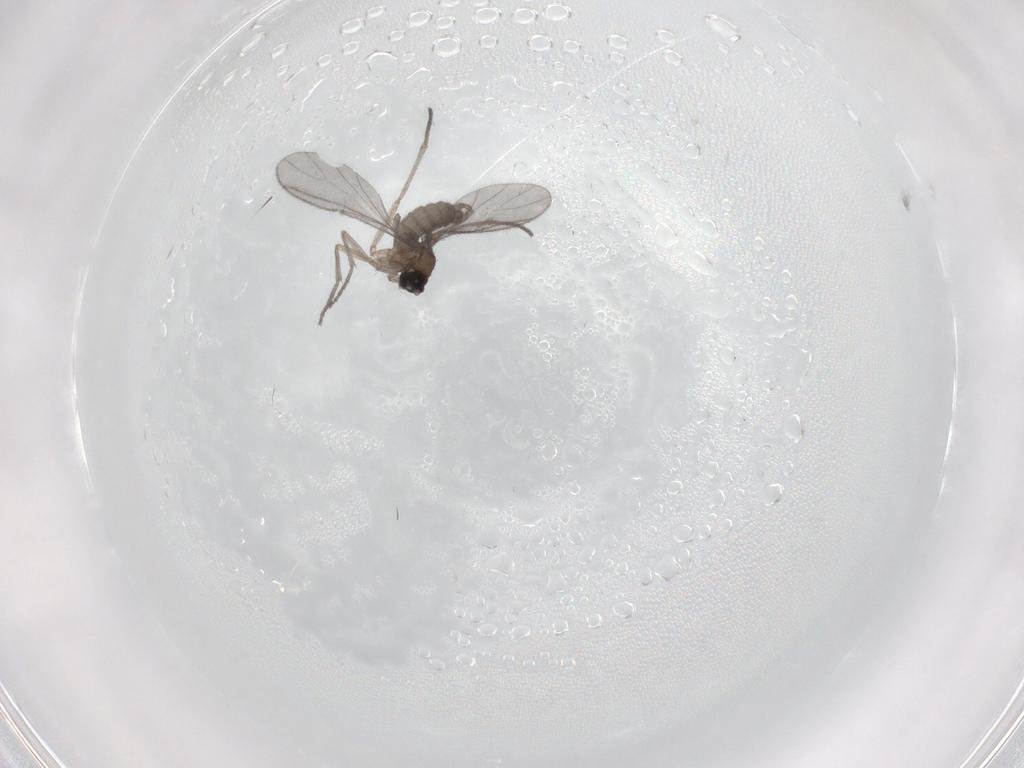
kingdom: Animalia
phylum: Arthropoda
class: Insecta
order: Diptera
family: Sciaridae
